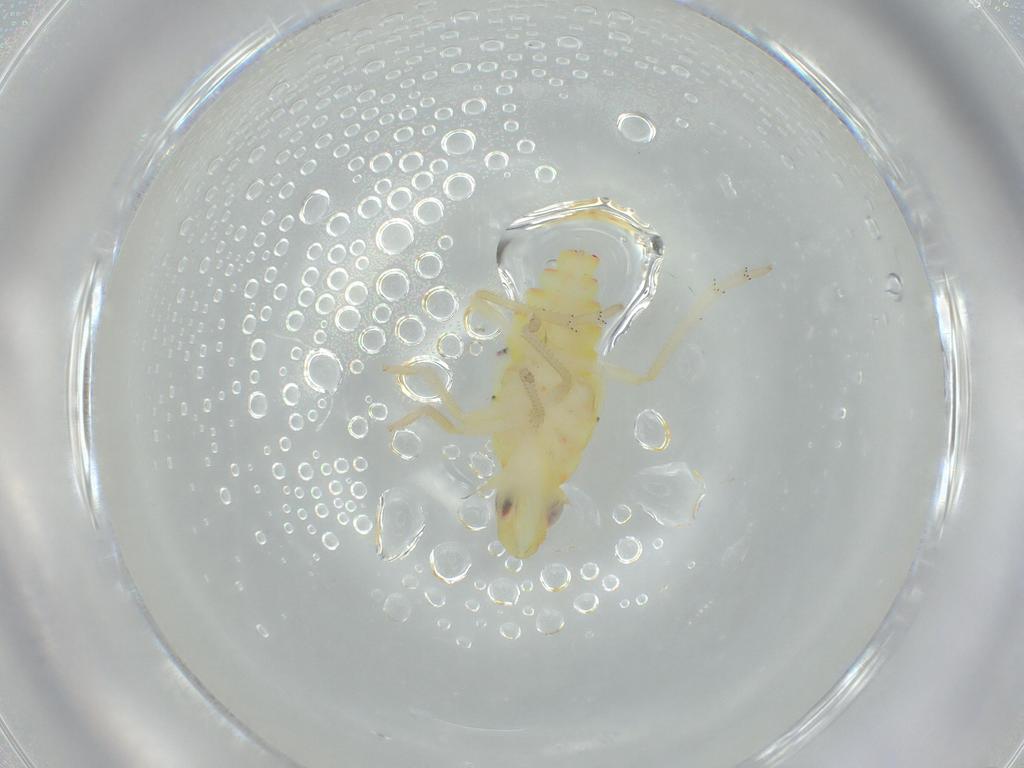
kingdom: Animalia
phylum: Arthropoda
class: Insecta
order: Hemiptera
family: Tropiduchidae
